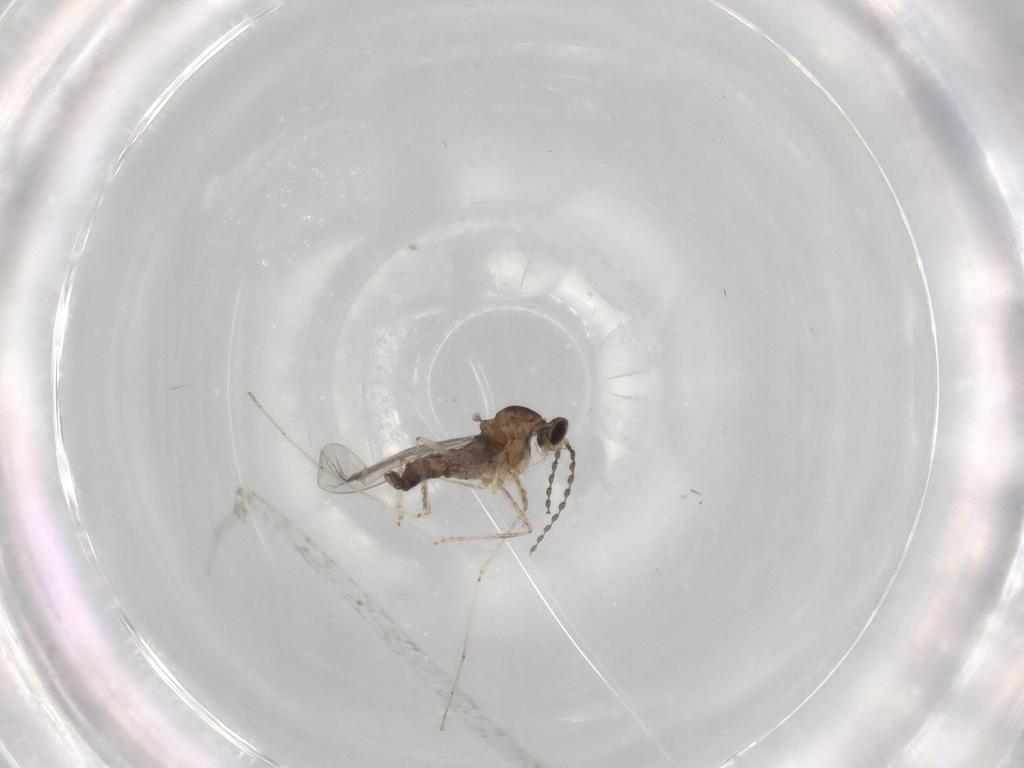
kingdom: Animalia
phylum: Arthropoda
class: Insecta
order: Diptera
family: Cecidomyiidae
